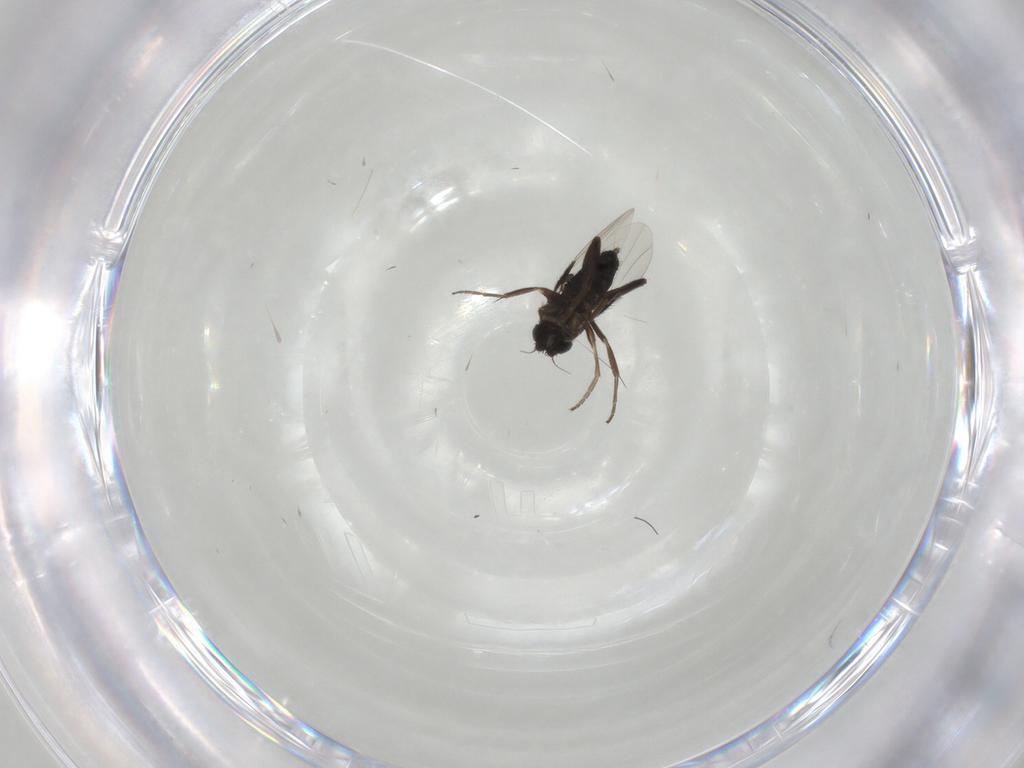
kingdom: Animalia
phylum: Arthropoda
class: Insecta
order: Diptera
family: Phoridae
